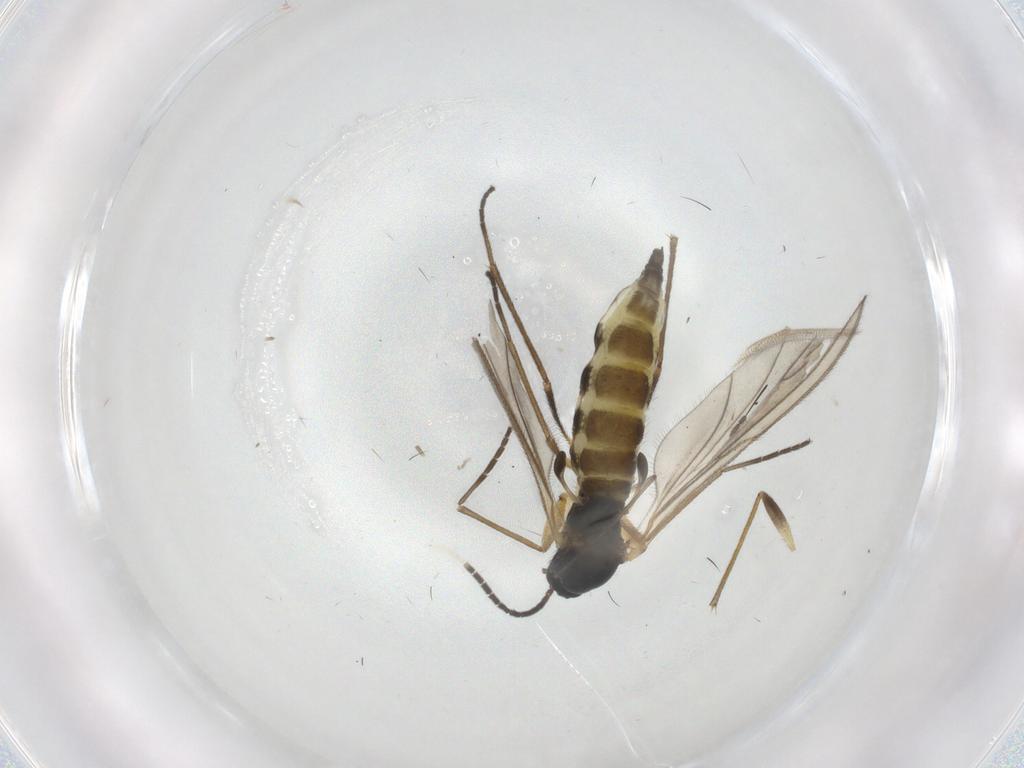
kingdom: Animalia
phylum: Arthropoda
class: Insecta
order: Diptera
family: Sciaridae
